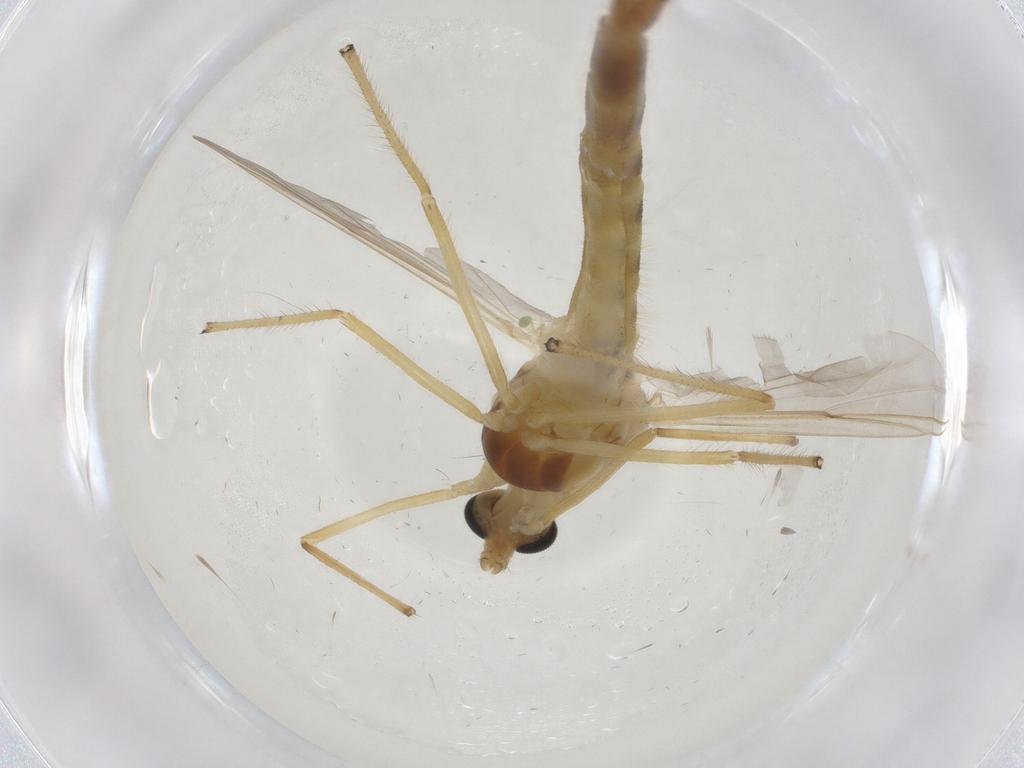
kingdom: Animalia
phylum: Arthropoda
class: Insecta
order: Diptera
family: Chironomidae
